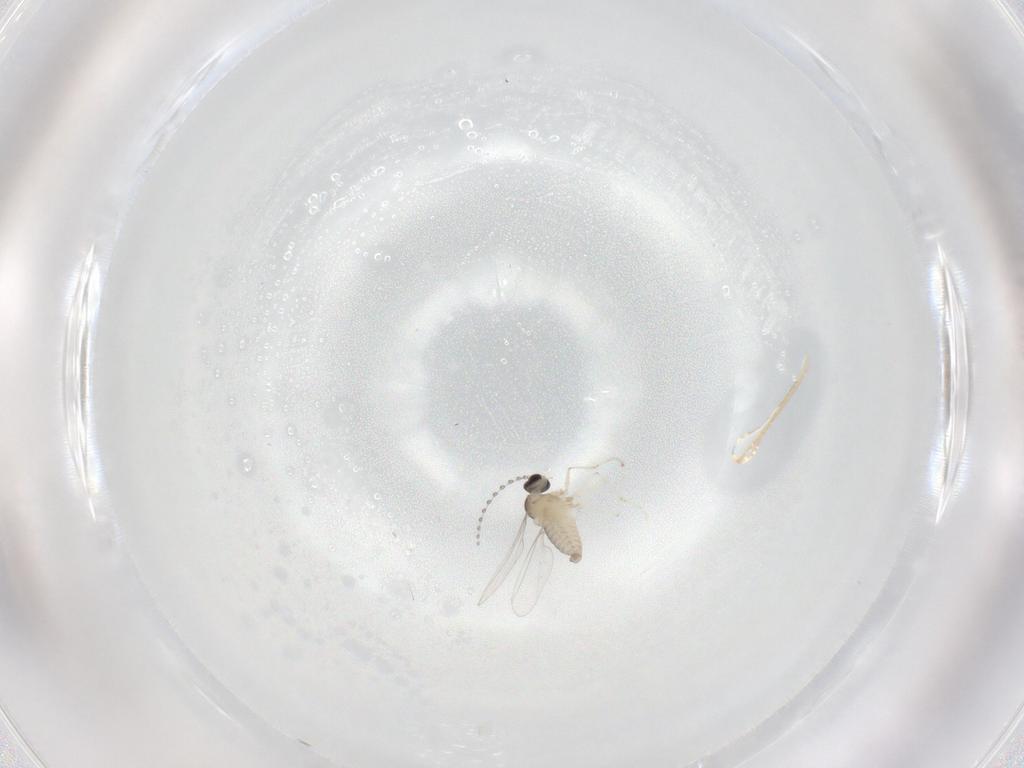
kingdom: Animalia
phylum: Arthropoda
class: Insecta
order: Diptera
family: Cecidomyiidae
